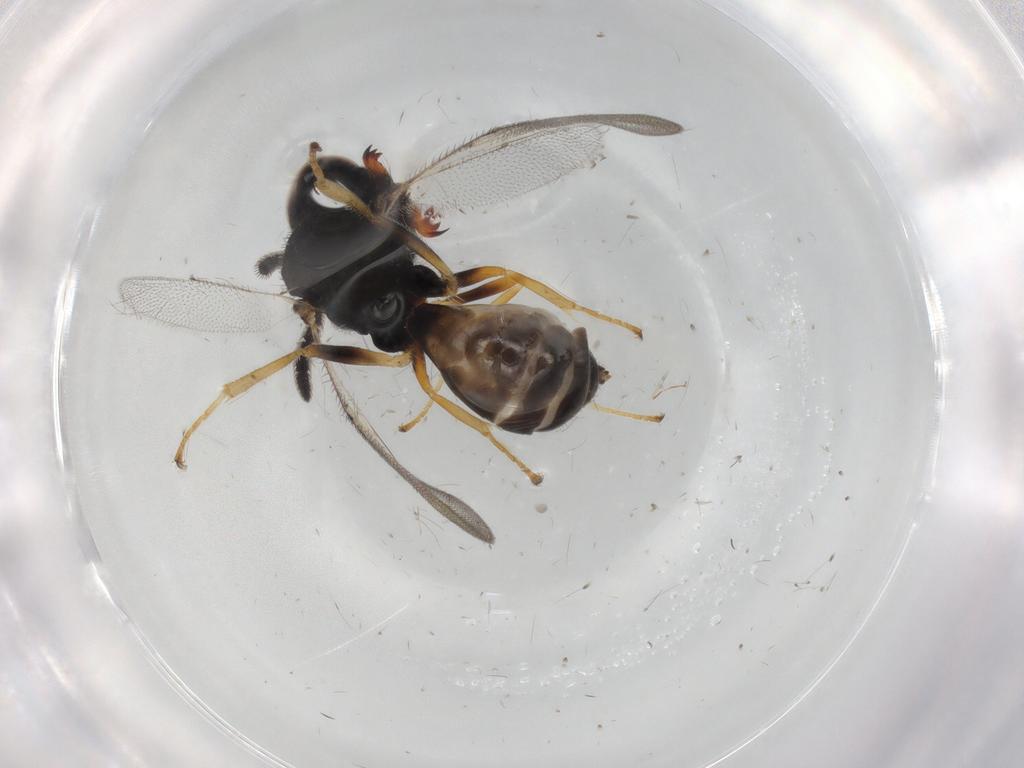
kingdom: Animalia
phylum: Arthropoda
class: Insecta
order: Hymenoptera
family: Pteromalidae
